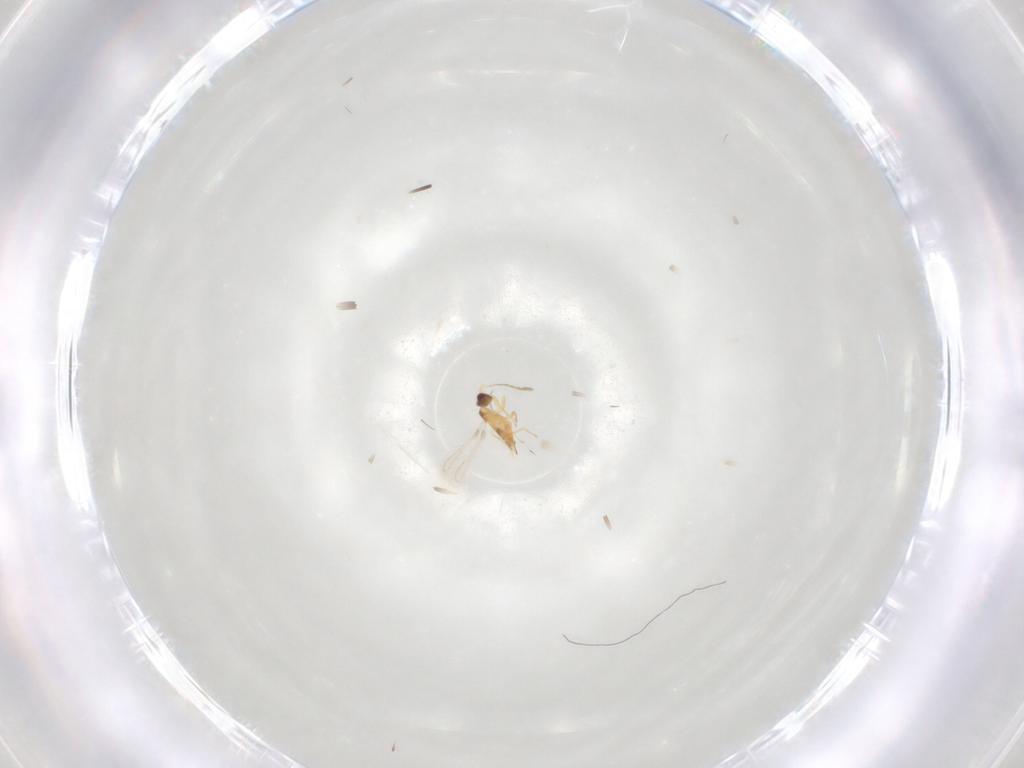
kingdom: Animalia
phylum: Arthropoda
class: Insecta
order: Hymenoptera
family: Mymaridae
